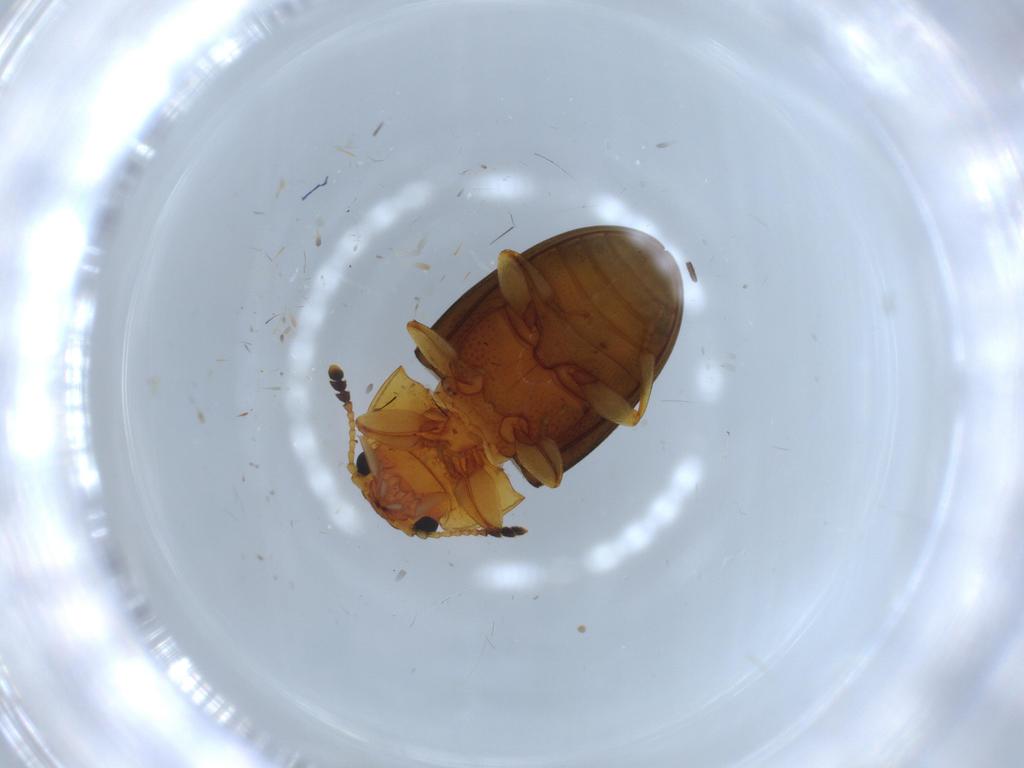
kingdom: Animalia
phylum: Arthropoda
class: Insecta
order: Coleoptera
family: Erotylidae
